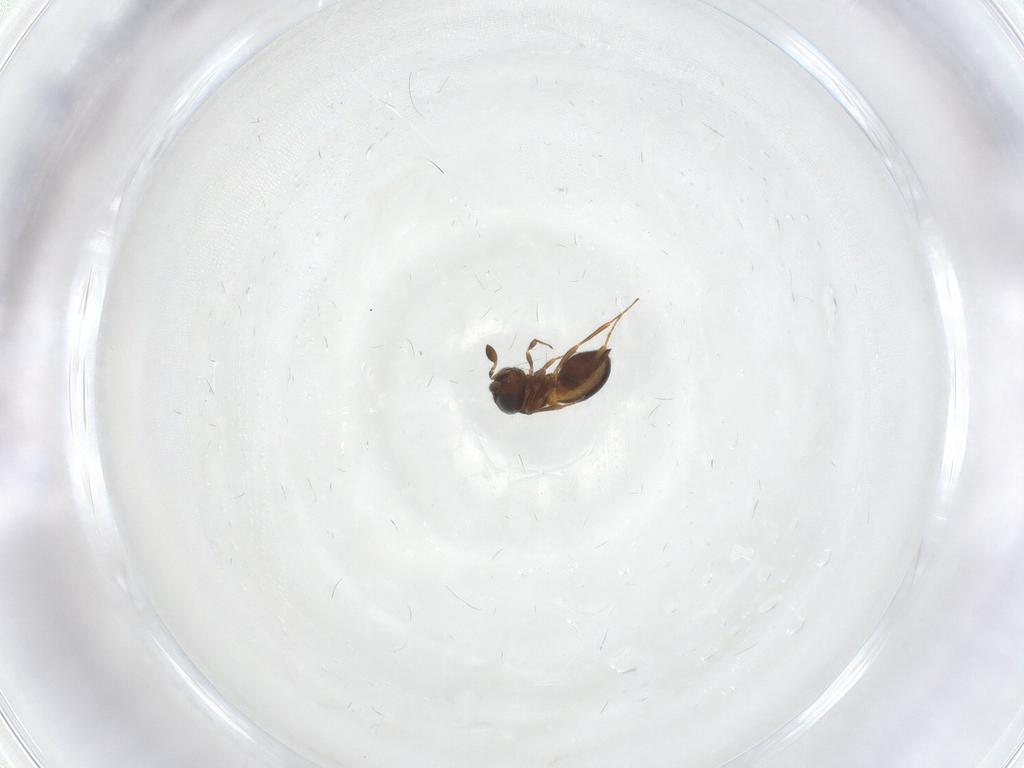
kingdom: Animalia
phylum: Arthropoda
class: Insecta
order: Hymenoptera
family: Scelionidae
